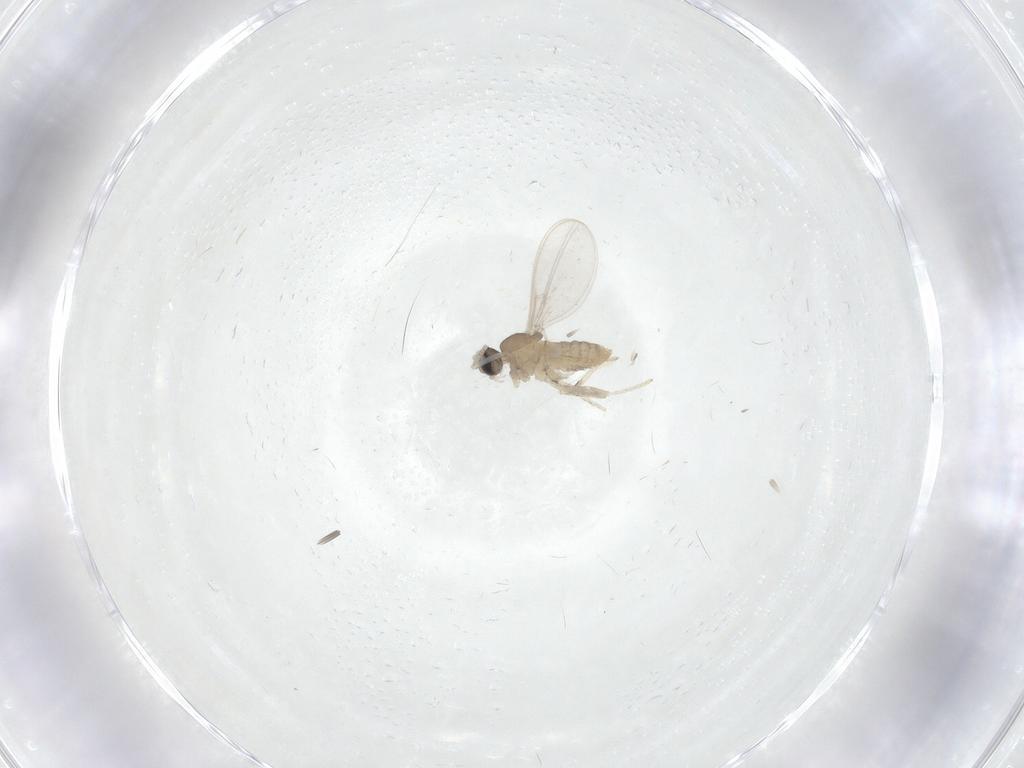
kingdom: Animalia
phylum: Arthropoda
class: Insecta
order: Diptera
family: Cecidomyiidae
